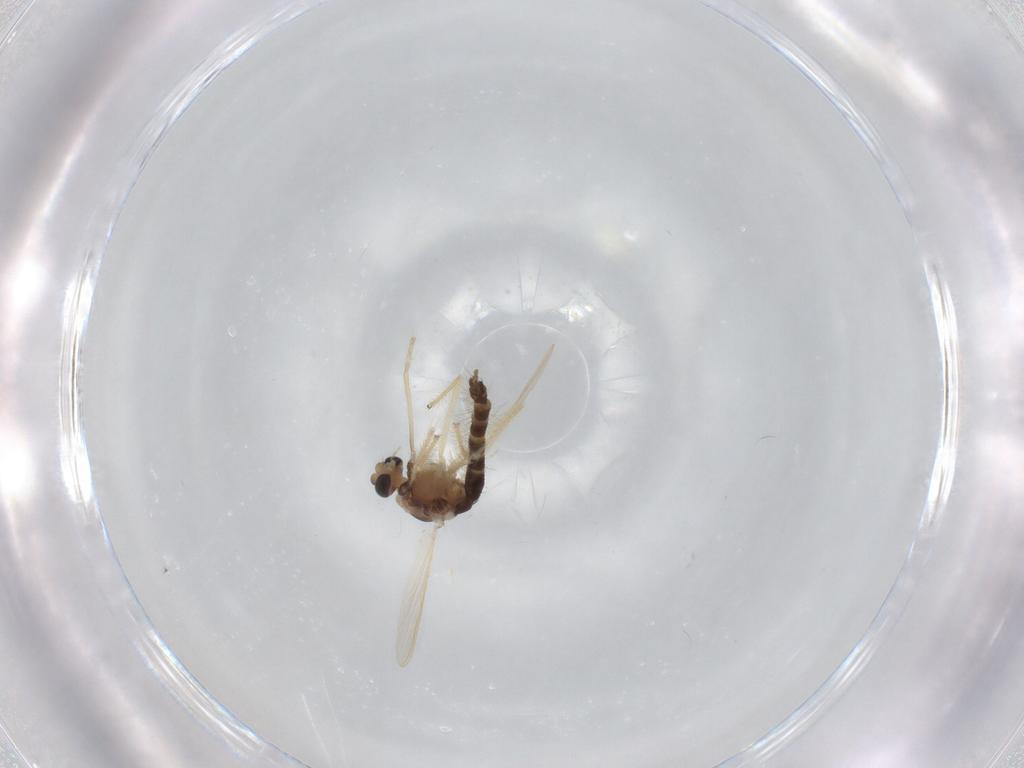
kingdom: Animalia
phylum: Arthropoda
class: Insecta
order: Diptera
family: Chironomidae
